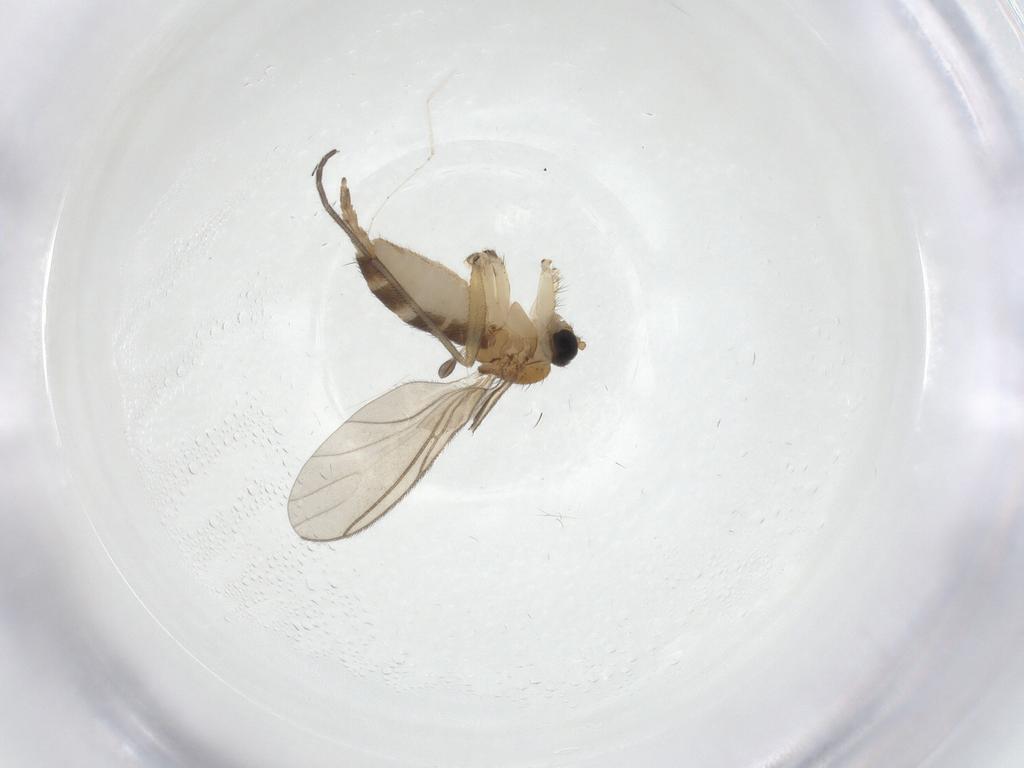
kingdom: Animalia
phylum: Arthropoda
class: Insecta
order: Diptera
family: Sciaridae
